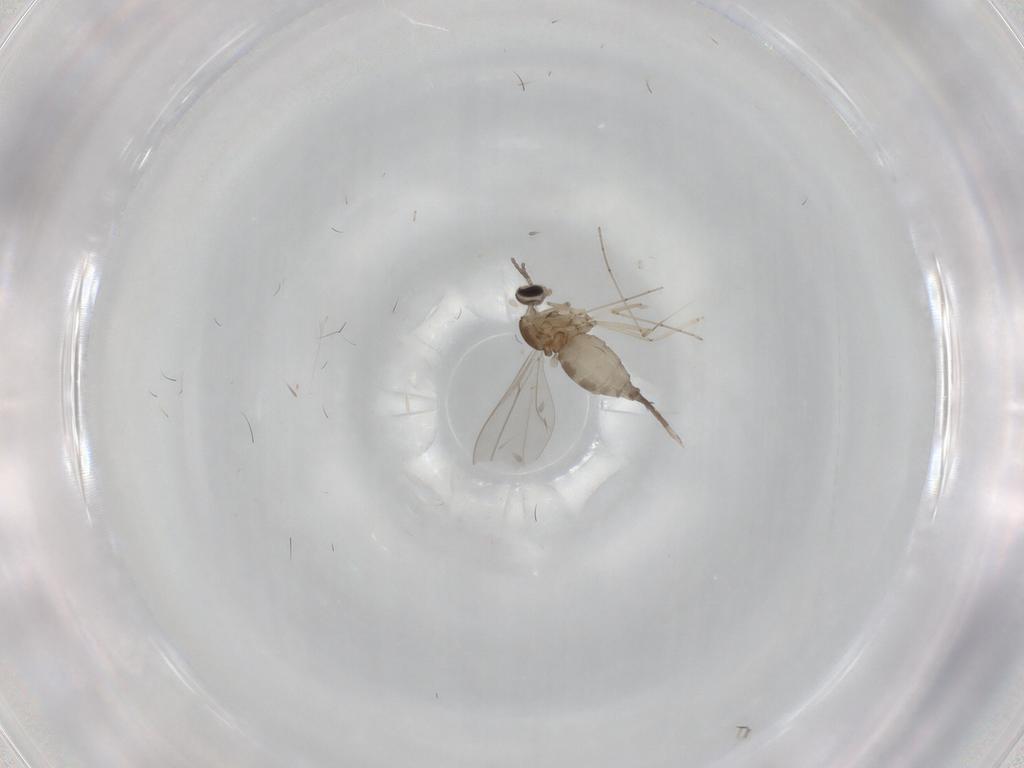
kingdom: Animalia
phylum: Arthropoda
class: Insecta
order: Diptera
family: Cecidomyiidae
